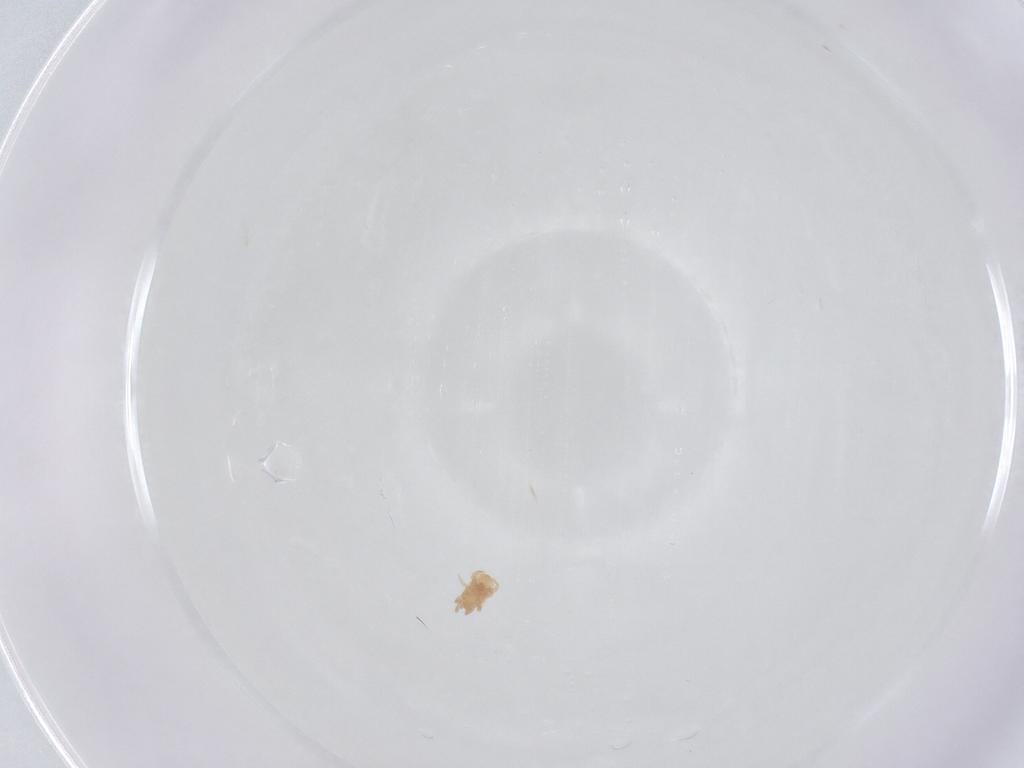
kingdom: Animalia
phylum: Arthropoda
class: Arachnida
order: Mesostigmata
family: Digamasellidae
